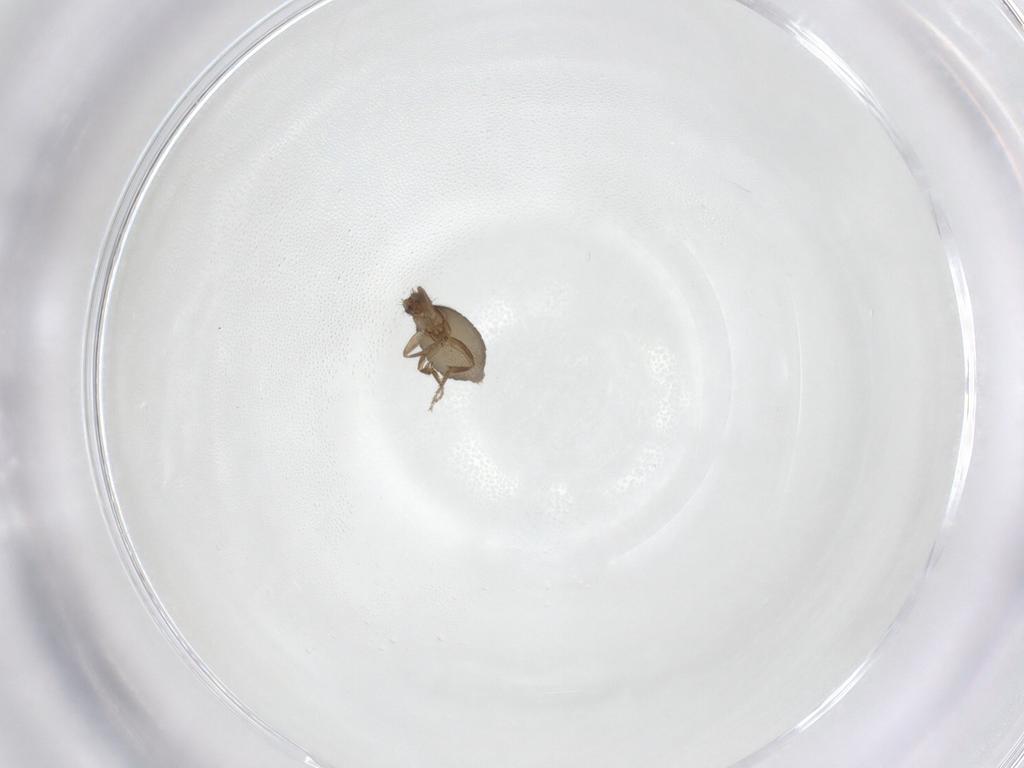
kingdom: Animalia
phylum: Arthropoda
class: Insecta
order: Diptera
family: Phoridae
